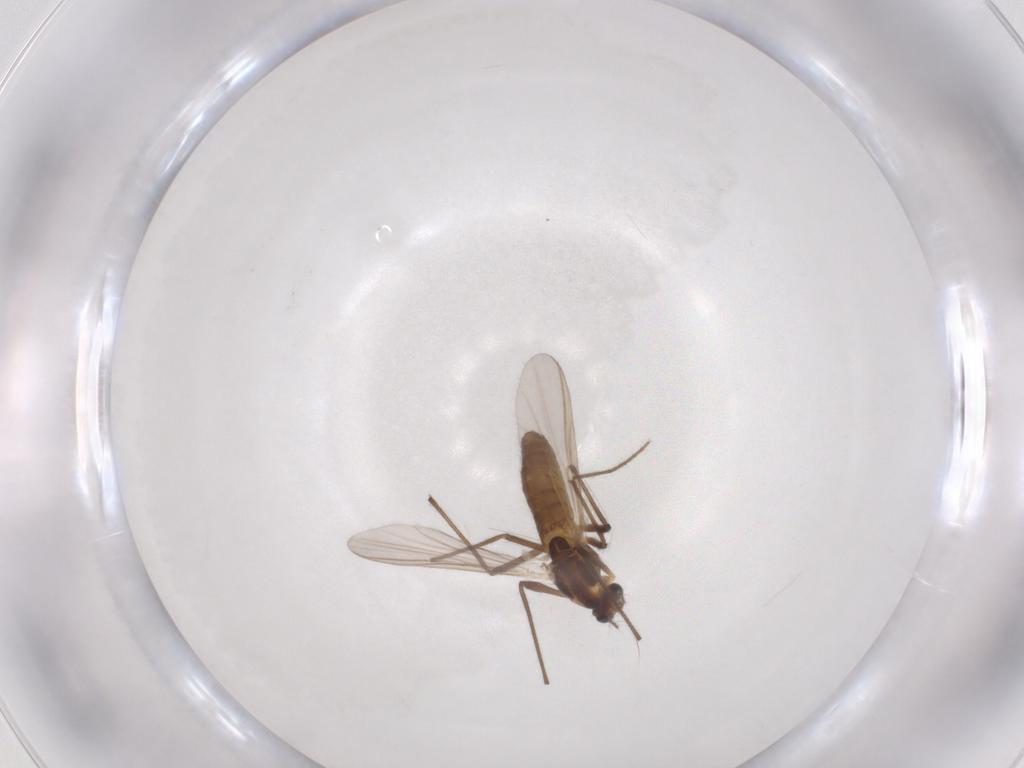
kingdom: Animalia
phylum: Arthropoda
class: Insecta
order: Diptera
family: Chironomidae
